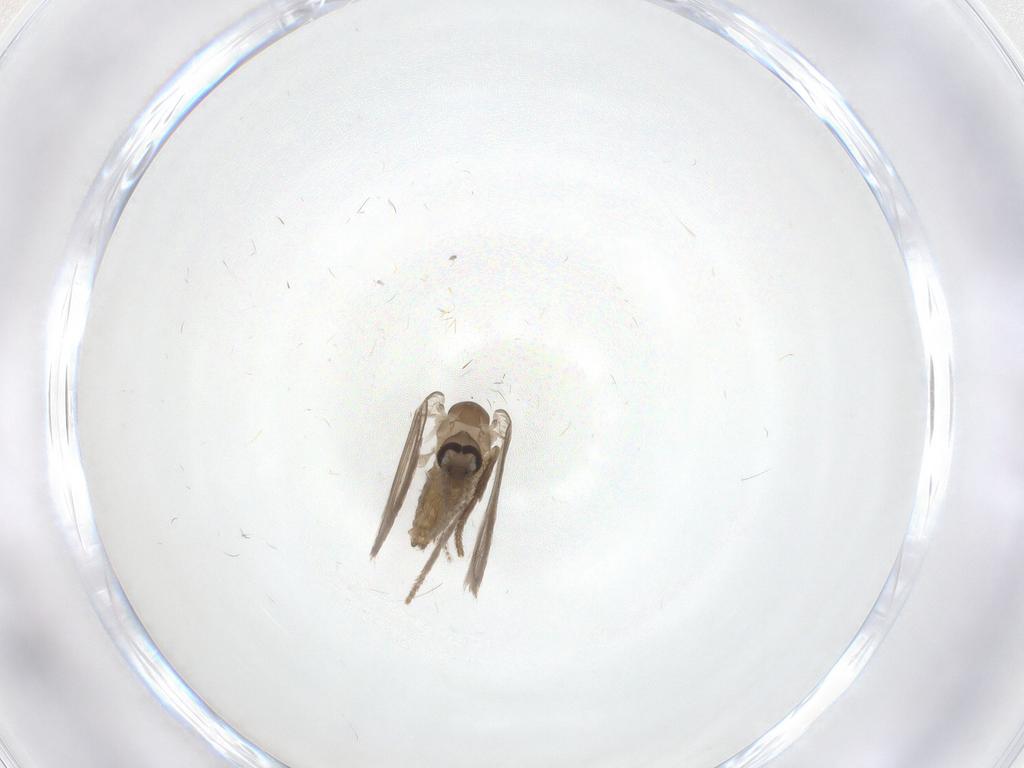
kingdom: Animalia
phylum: Arthropoda
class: Insecta
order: Diptera
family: Psychodidae
